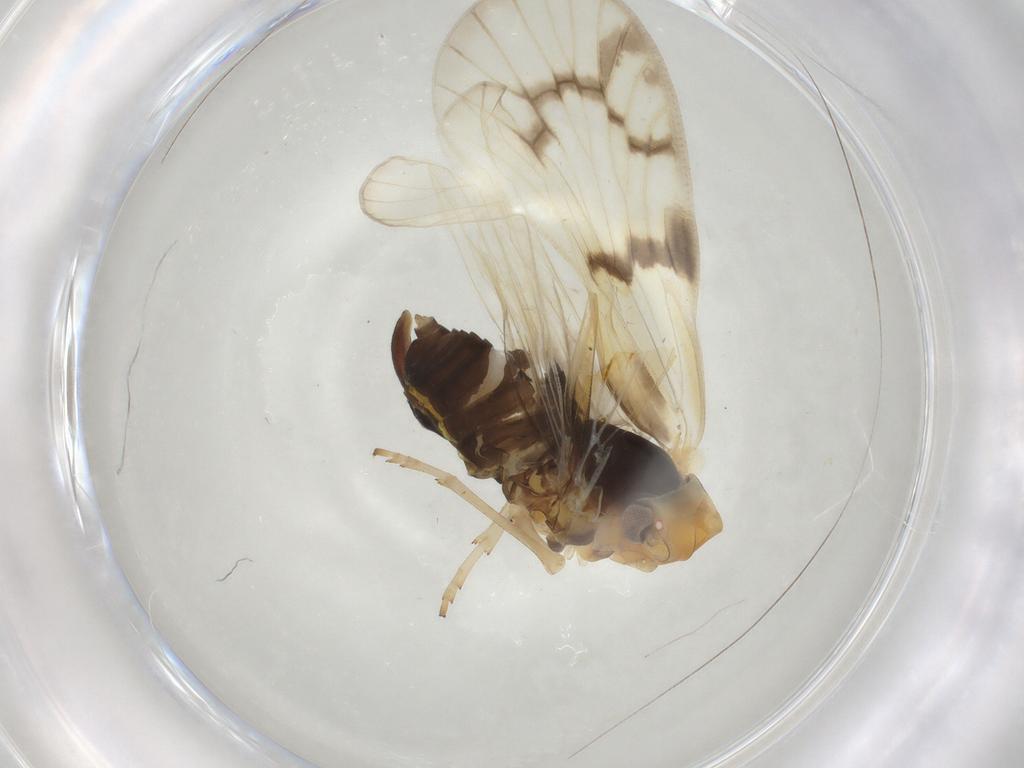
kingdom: Animalia
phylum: Arthropoda
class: Insecta
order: Hemiptera
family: Cixiidae
